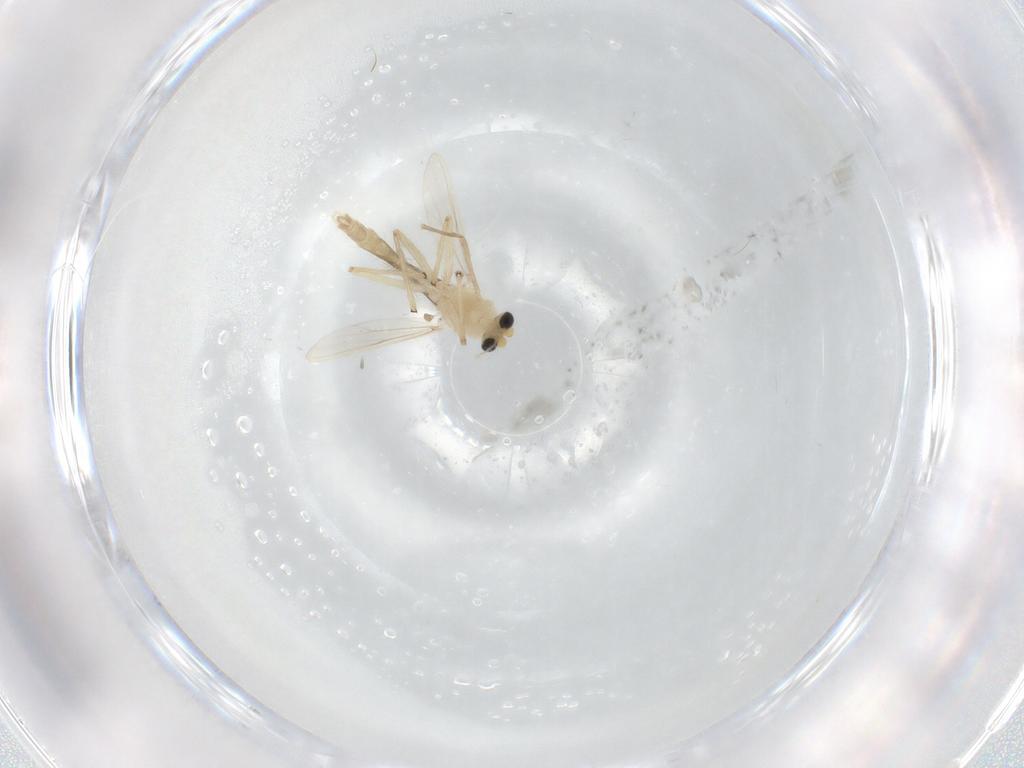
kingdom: Animalia
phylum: Arthropoda
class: Insecta
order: Diptera
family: Chironomidae
